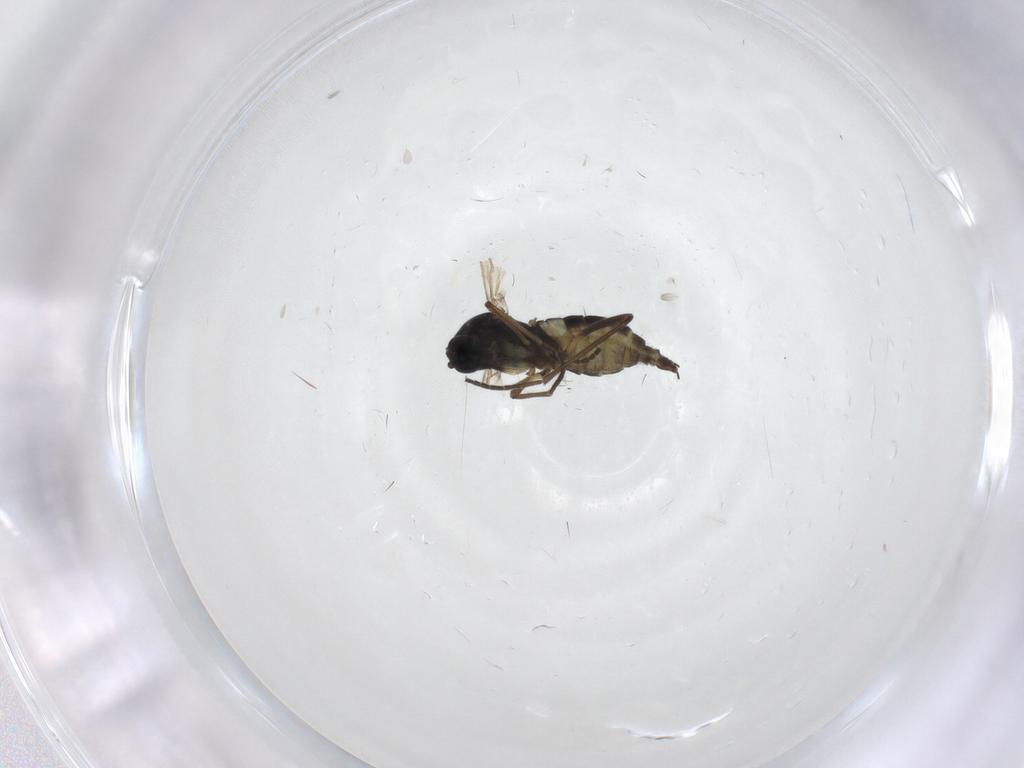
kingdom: Animalia
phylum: Arthropoda
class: Insecta
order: Diptera
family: Sciaridae
